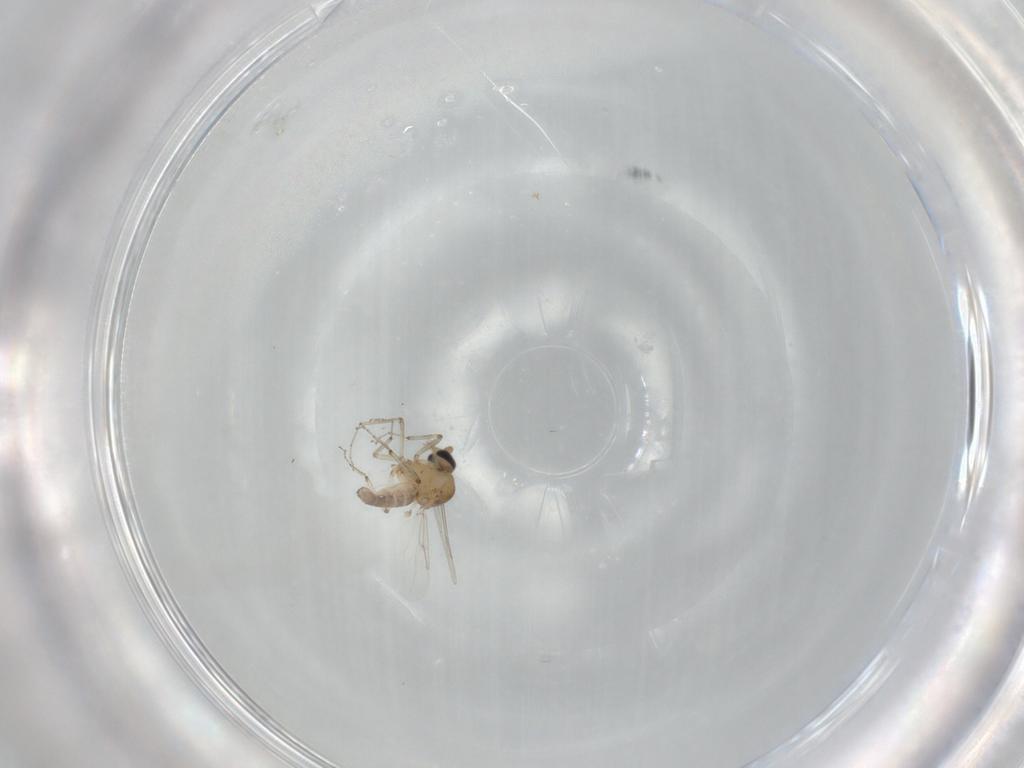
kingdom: Animalia
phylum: Arthropoda
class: Insecta
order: Diptera
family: Ceratopogonidae
